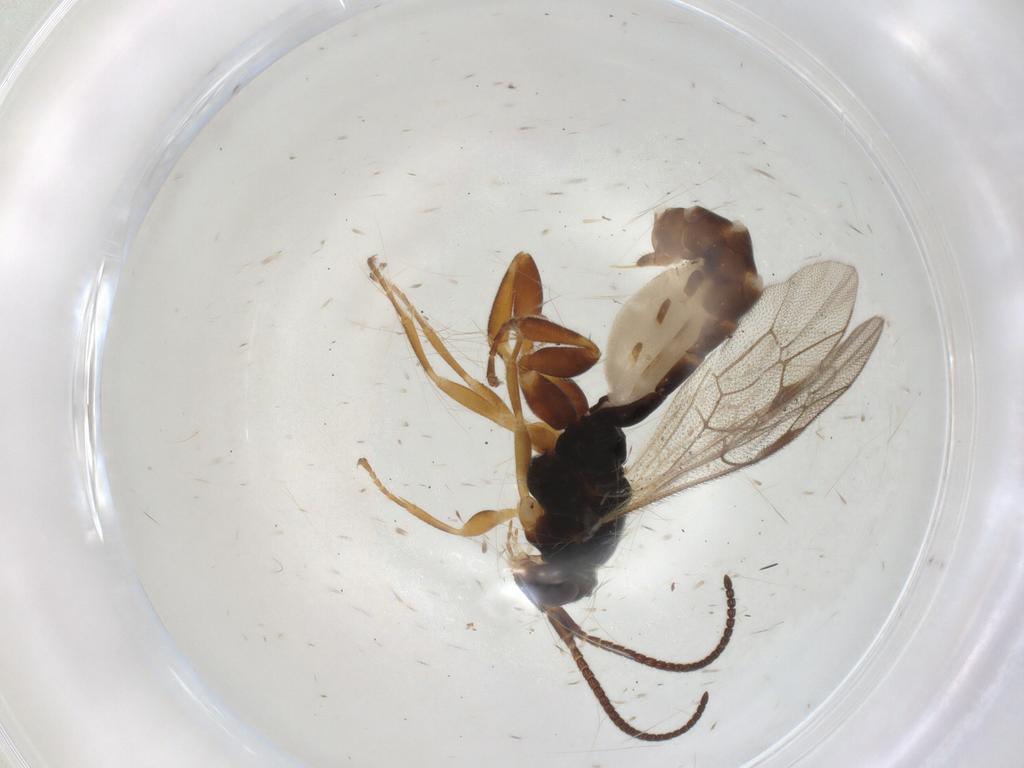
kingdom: Animalia
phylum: Arthropoda
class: Insecta
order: Hymenoptera
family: Ichneumonidae
